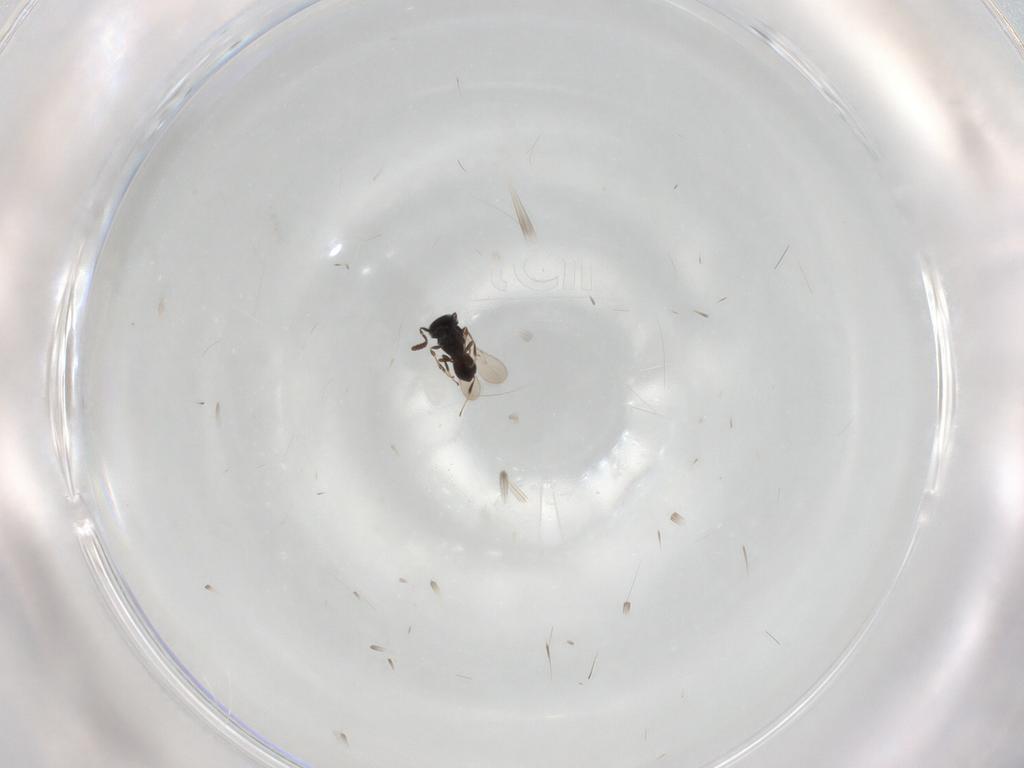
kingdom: Animalia
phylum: Arthropoda
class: Insecta
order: Hymenoptera
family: Scelionidae
